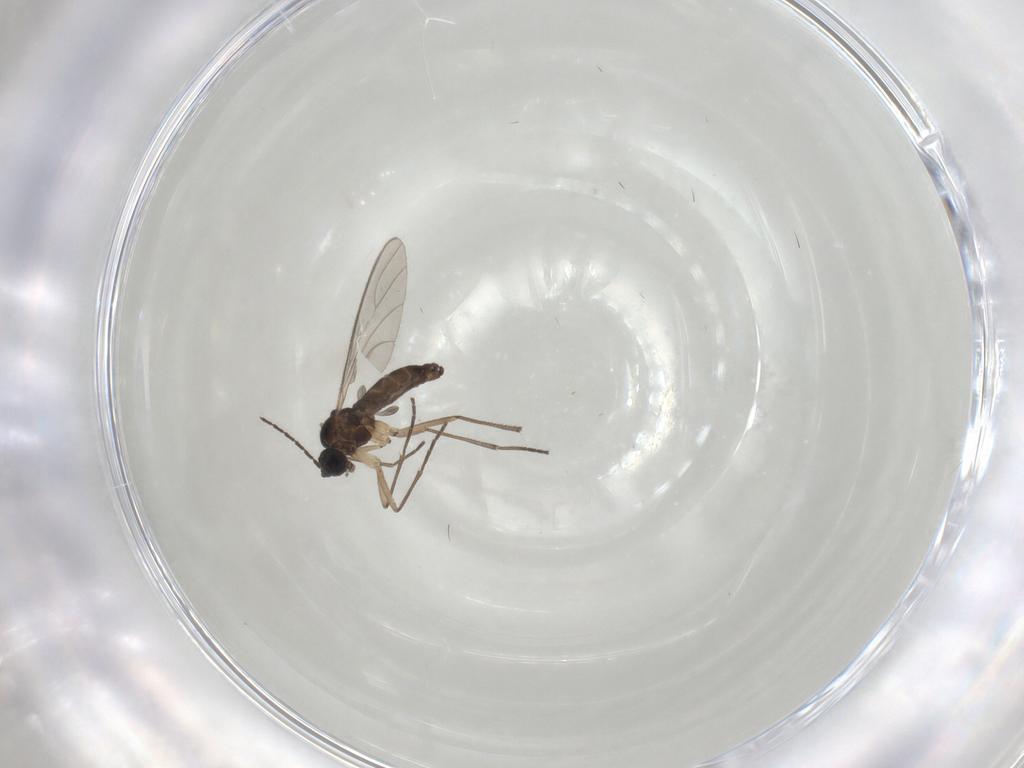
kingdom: Animalia
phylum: Arthropoda
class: Insecta
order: Diptera
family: Sciaridae
